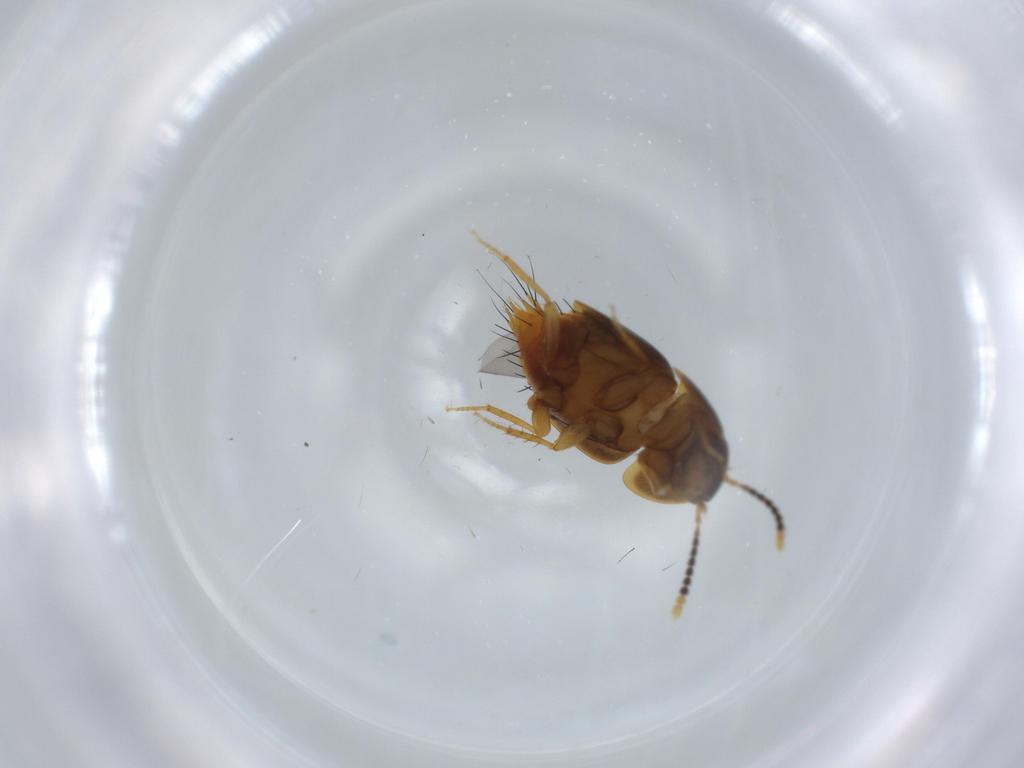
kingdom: Animalia
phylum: Arthropoda
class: Insecta
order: Coleoptera
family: Staphylinidae
